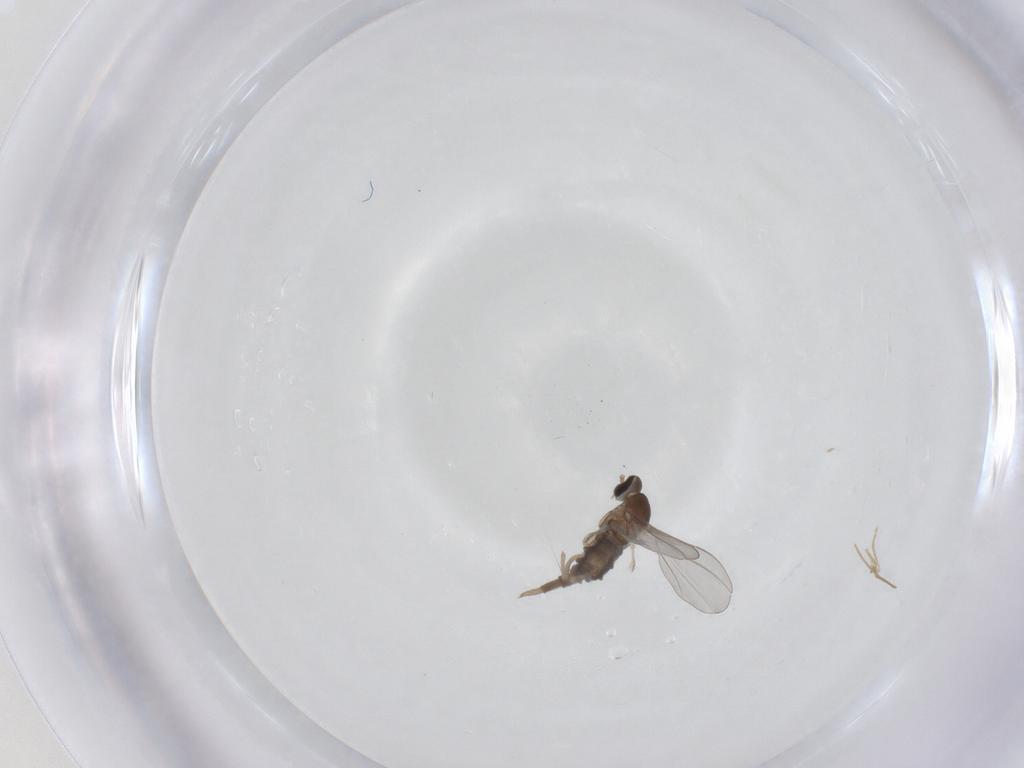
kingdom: Animalia
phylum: Arthropoda
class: Insecta
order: Diptera
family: Cecidomyiidae
